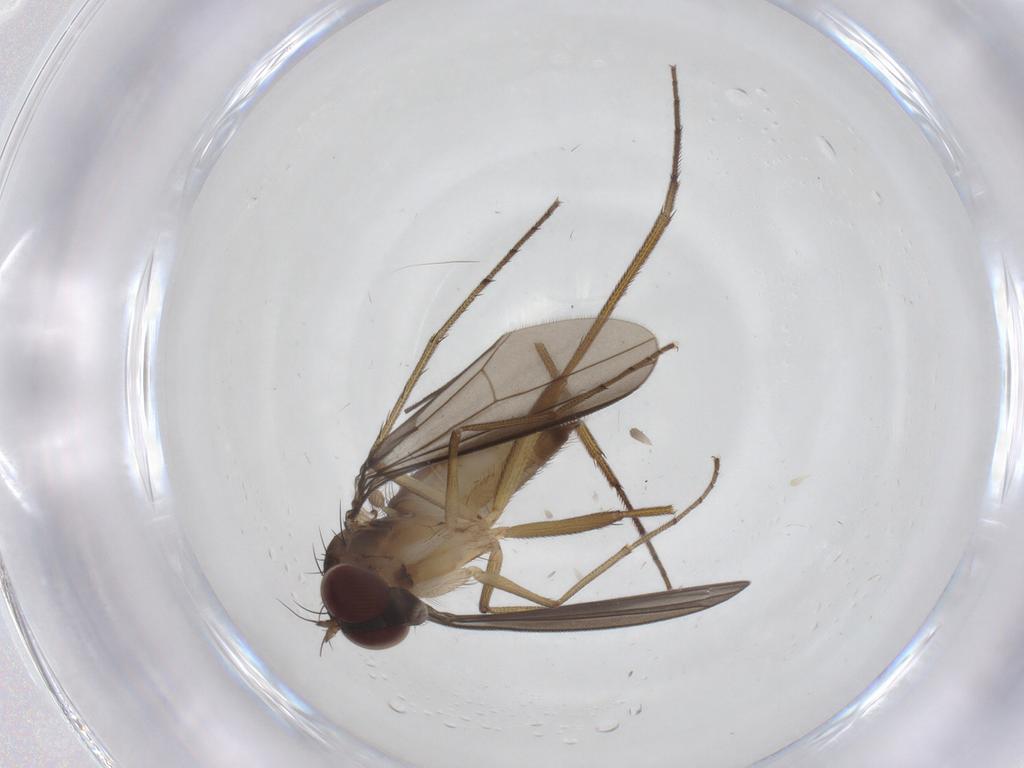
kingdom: Animalia
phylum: Arthropoda
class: Insecta
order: Diptera
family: Dolichopodidae
